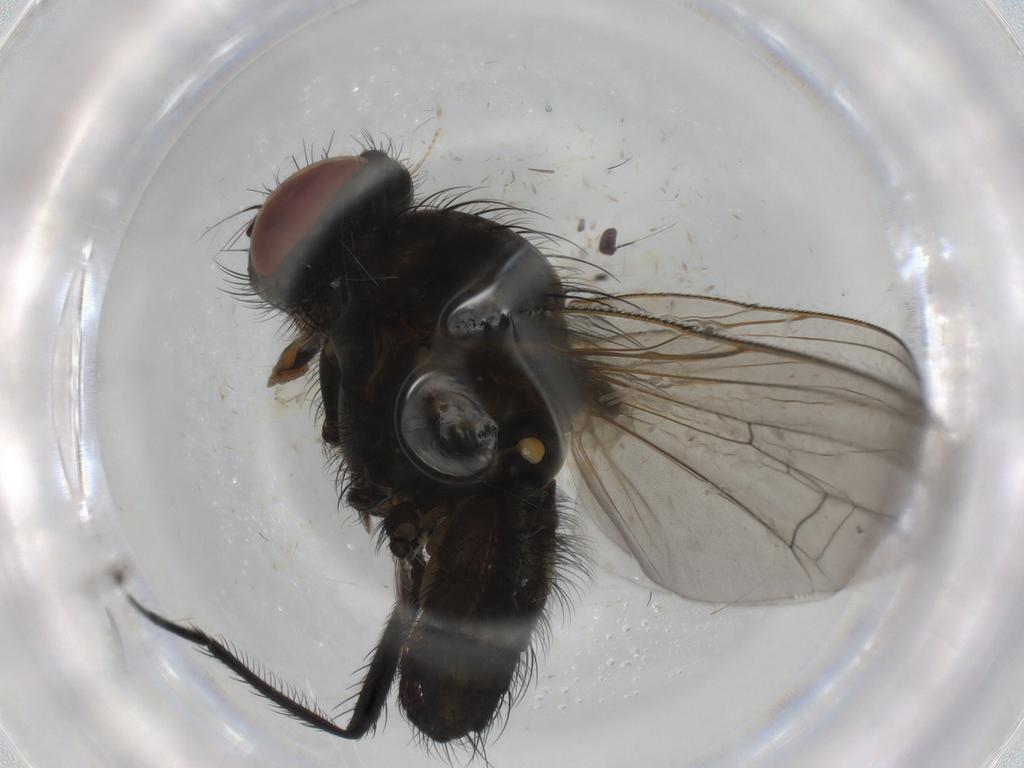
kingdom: Animalia
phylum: Arthropoda
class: Insecta
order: Diptera
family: Anthomyiidae
